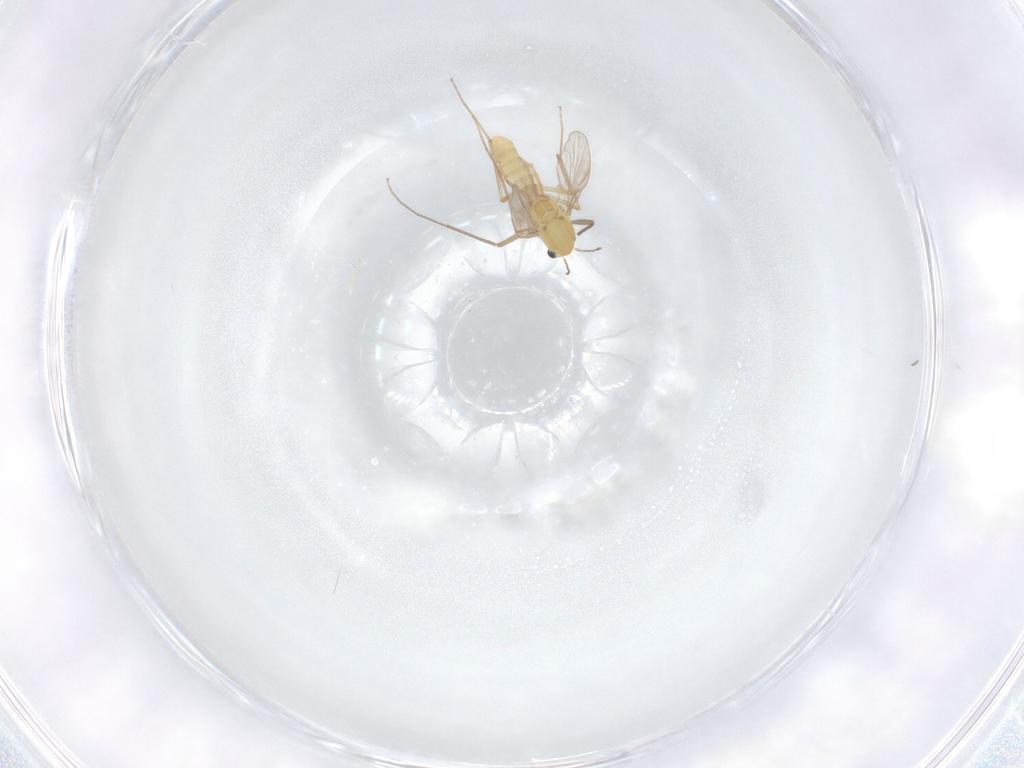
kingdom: Animalia
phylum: Arthropoda
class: Insecta
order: Diptera
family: Chironomidae
